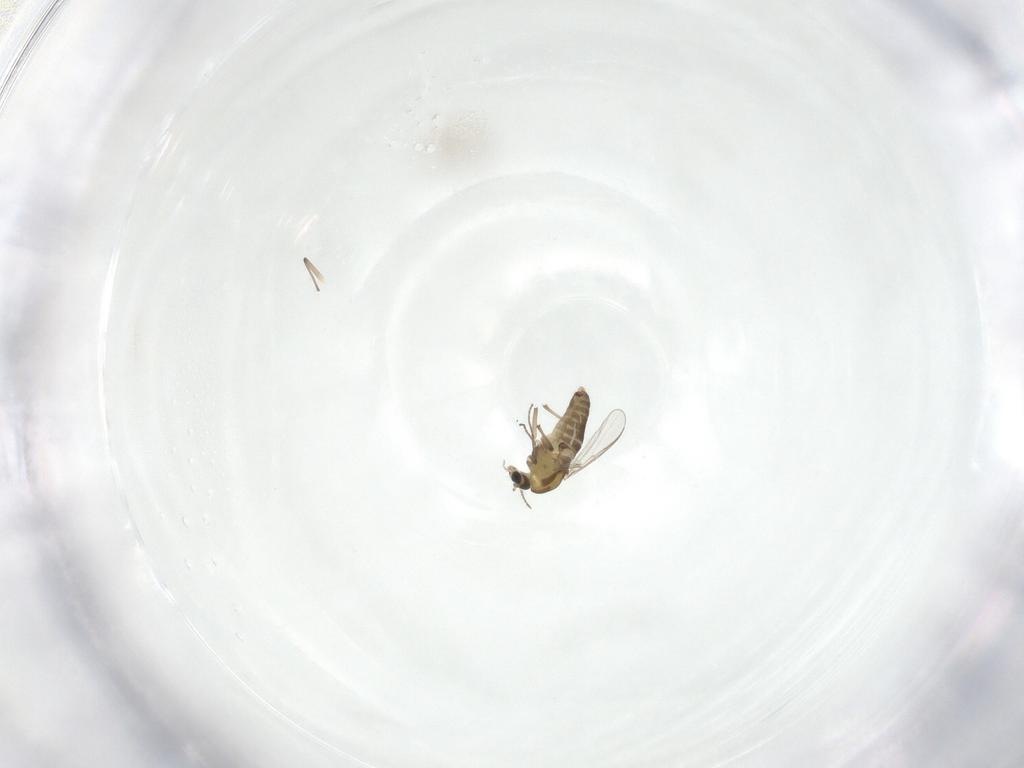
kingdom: Animalia
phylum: Arthropoda
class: Insecta
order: Diptera
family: Chironomidae
